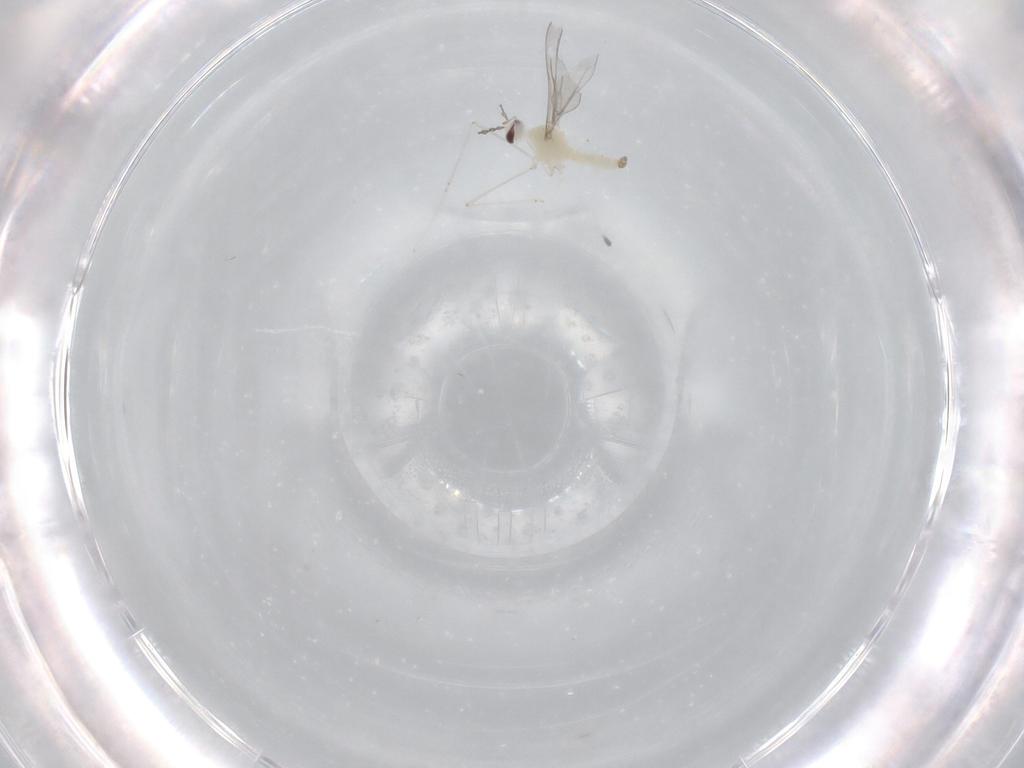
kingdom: Animalia
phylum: Arthropoda
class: Insecta
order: Diptera
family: Cecidomyiidae
